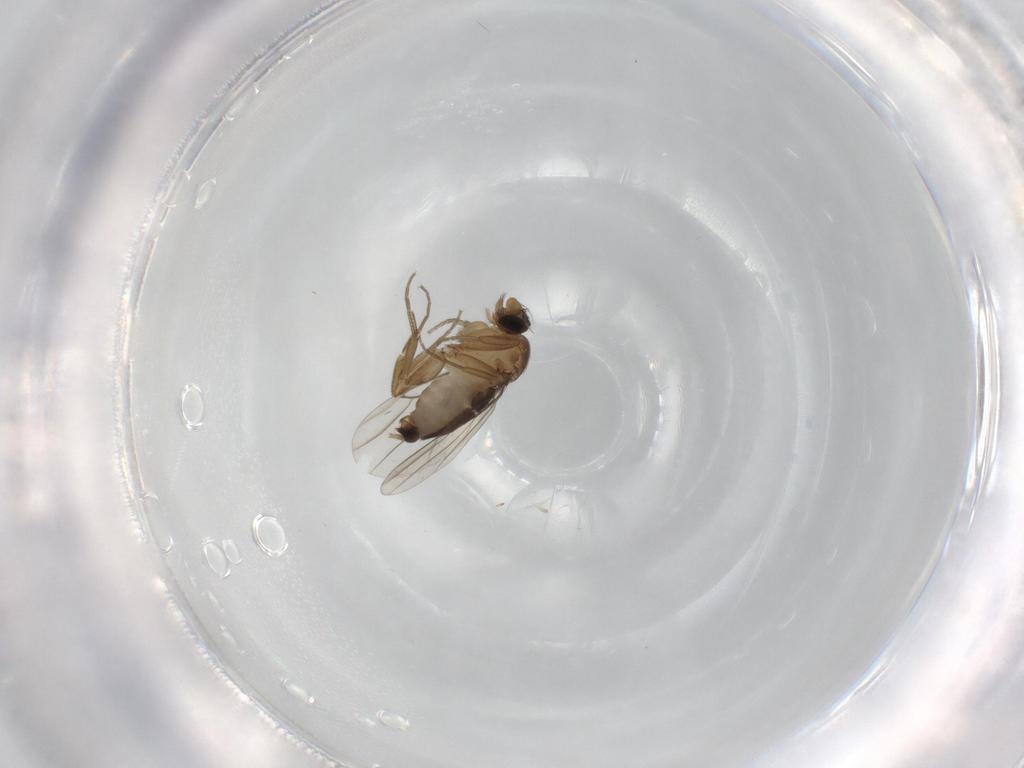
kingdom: Animalia
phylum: Arthropoda
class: Insecta
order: Diptera
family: Phoridae
